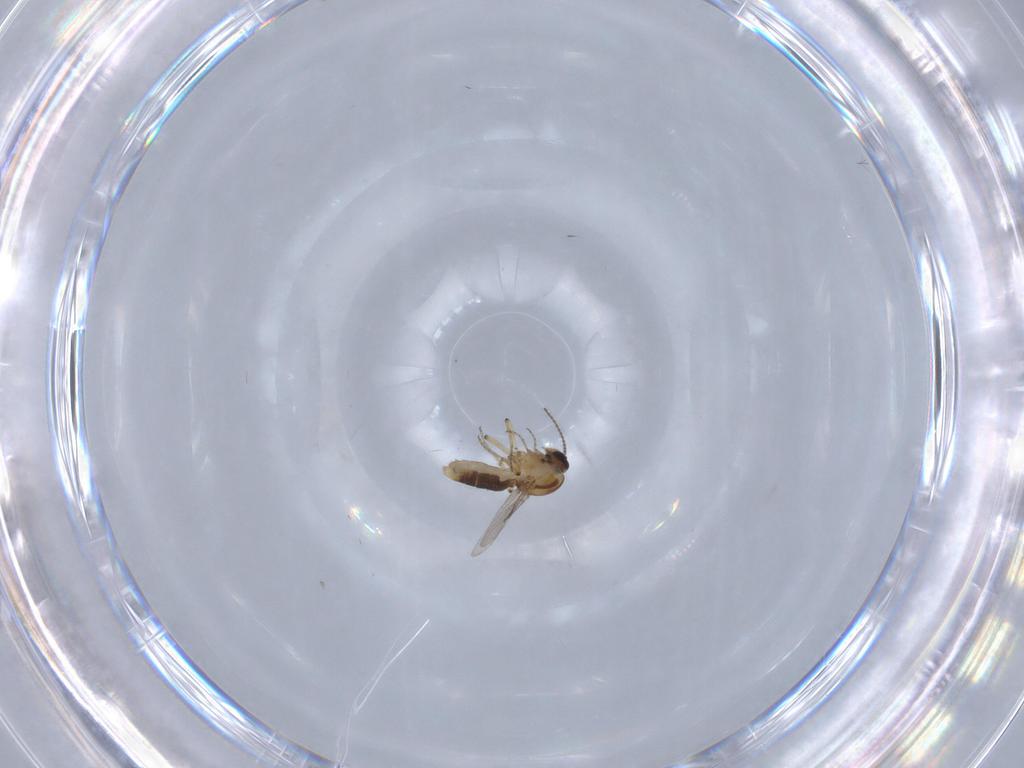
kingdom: Animalia
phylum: Arthropoda
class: Insecta
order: Diptera
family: Ceratopogonidae
